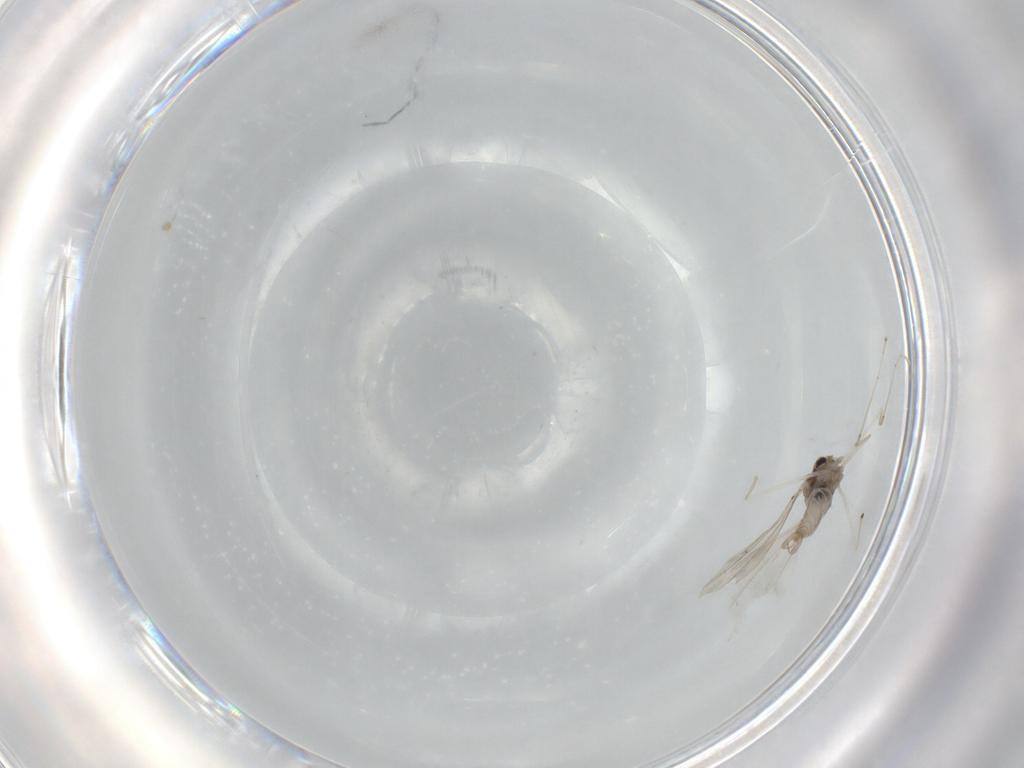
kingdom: Animalia
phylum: Arthropoda
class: Insecta
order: Diptera
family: Cecidomyiidae
